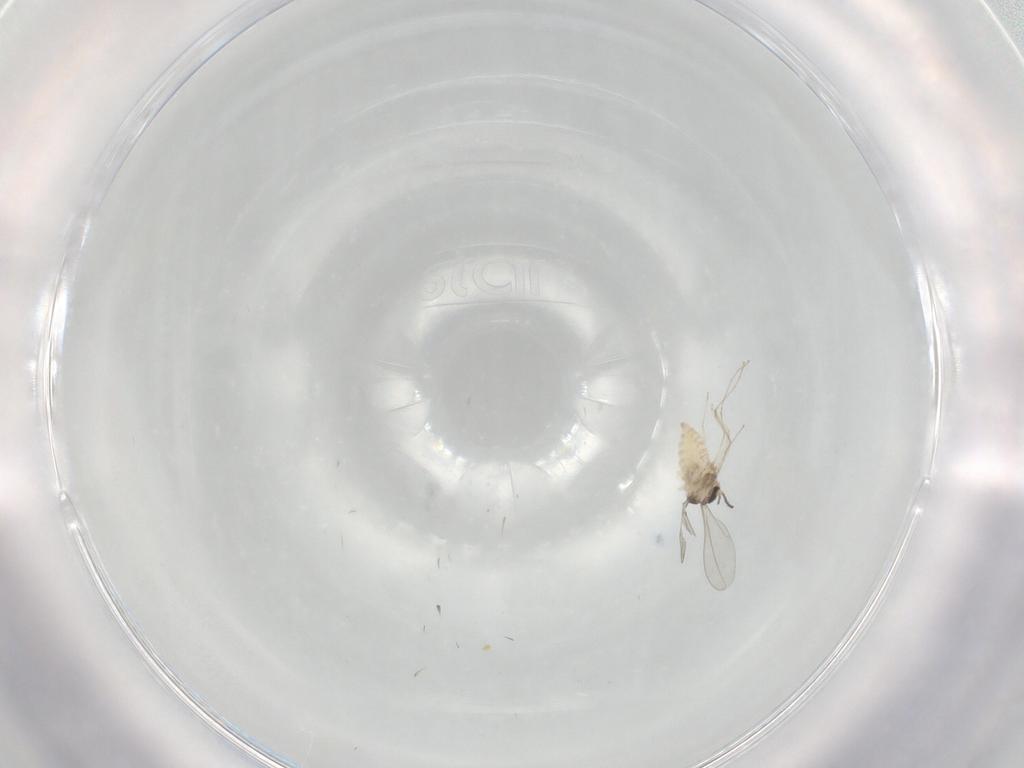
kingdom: Animalia
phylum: Arthropoda
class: Insecta
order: Diptera
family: Cecidomyiidae
